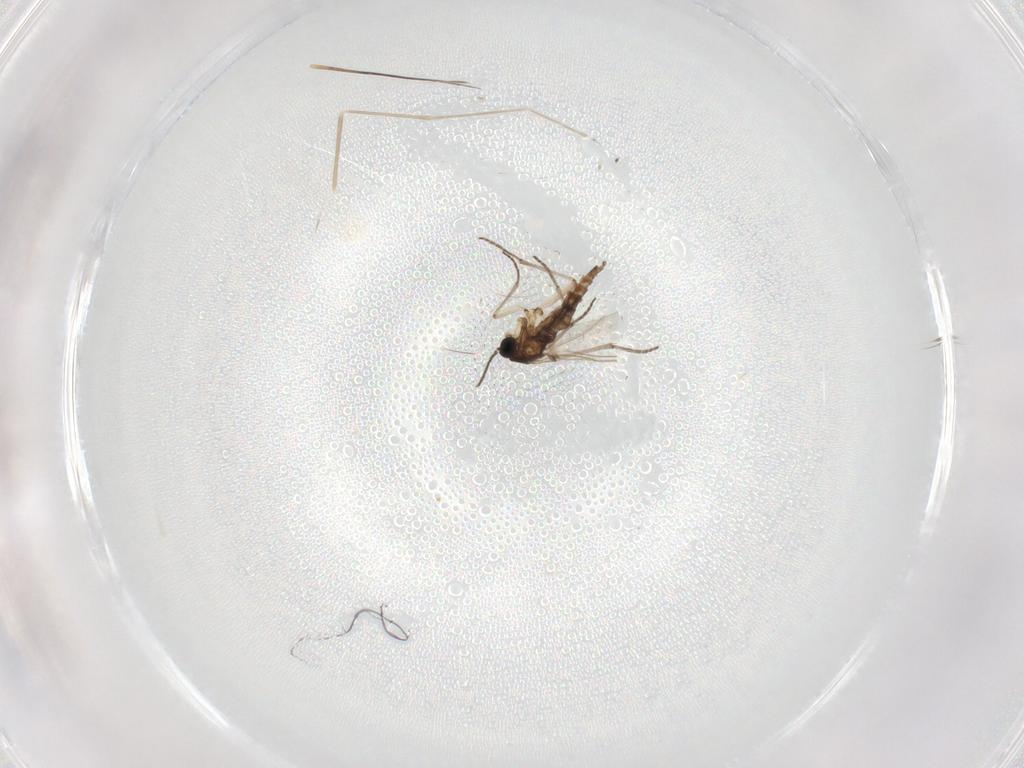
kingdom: Animalia
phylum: Arthropoda
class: Insecta
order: Diptera
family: Cecidomyiidae
